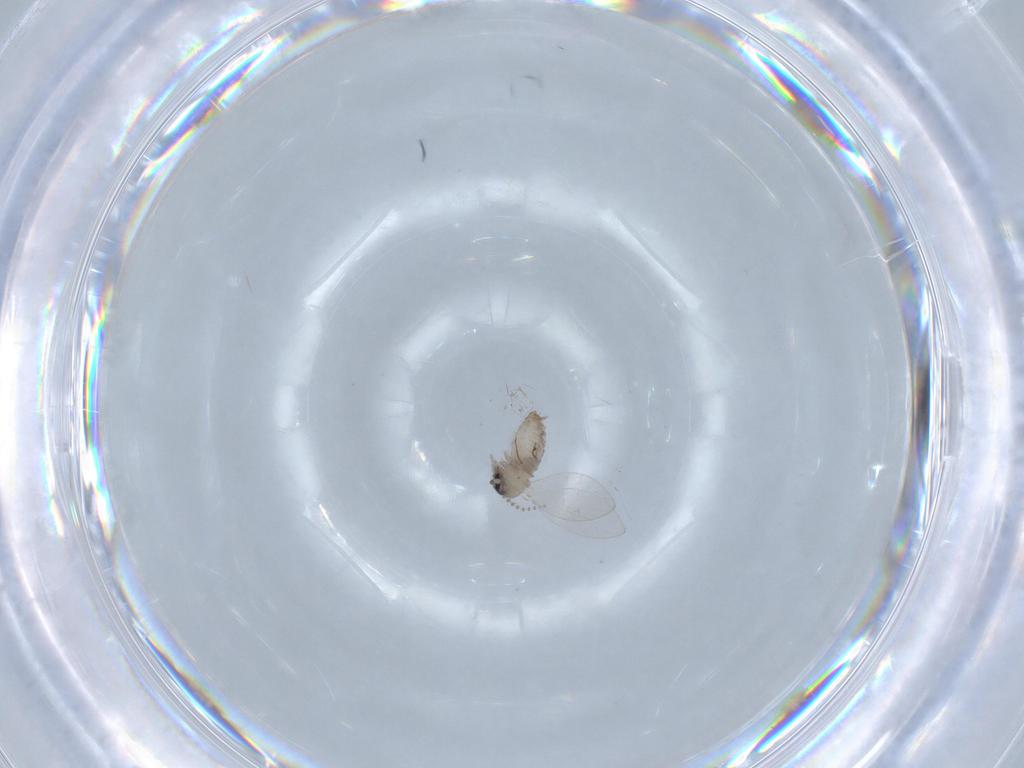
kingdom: Animalia
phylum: Arthropoda
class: Insecta
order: Diptera
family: Psychodidae
